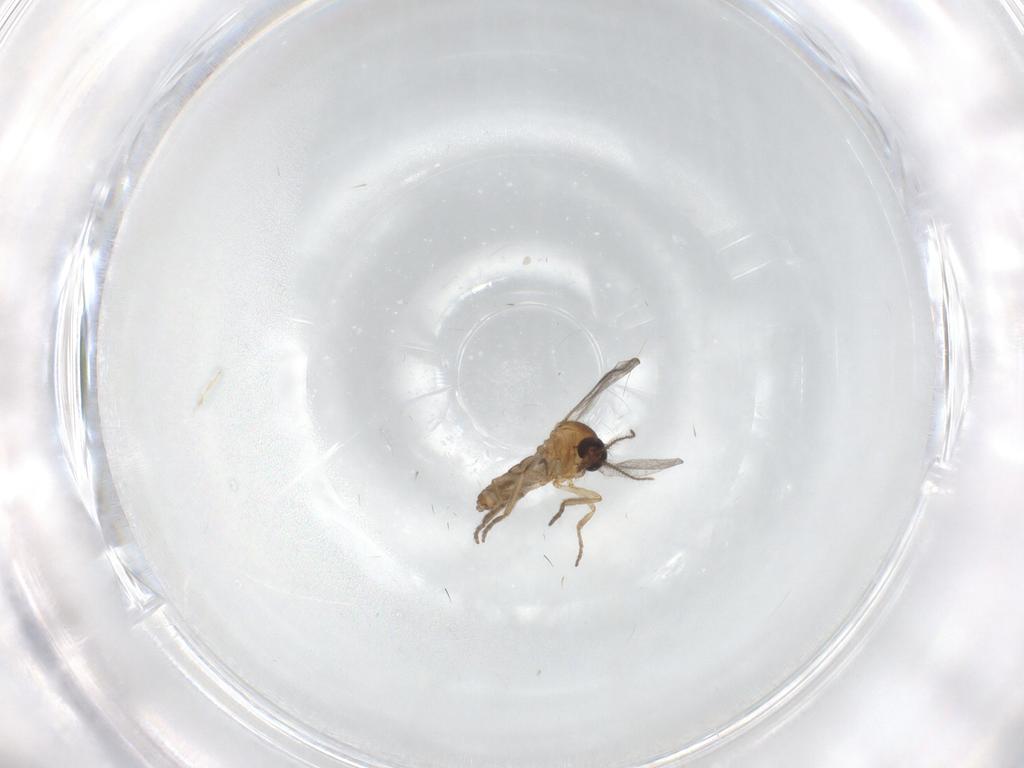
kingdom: Animalia
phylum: Arthropoda
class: Insecta
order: Diptera
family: Ceratopogonidae
